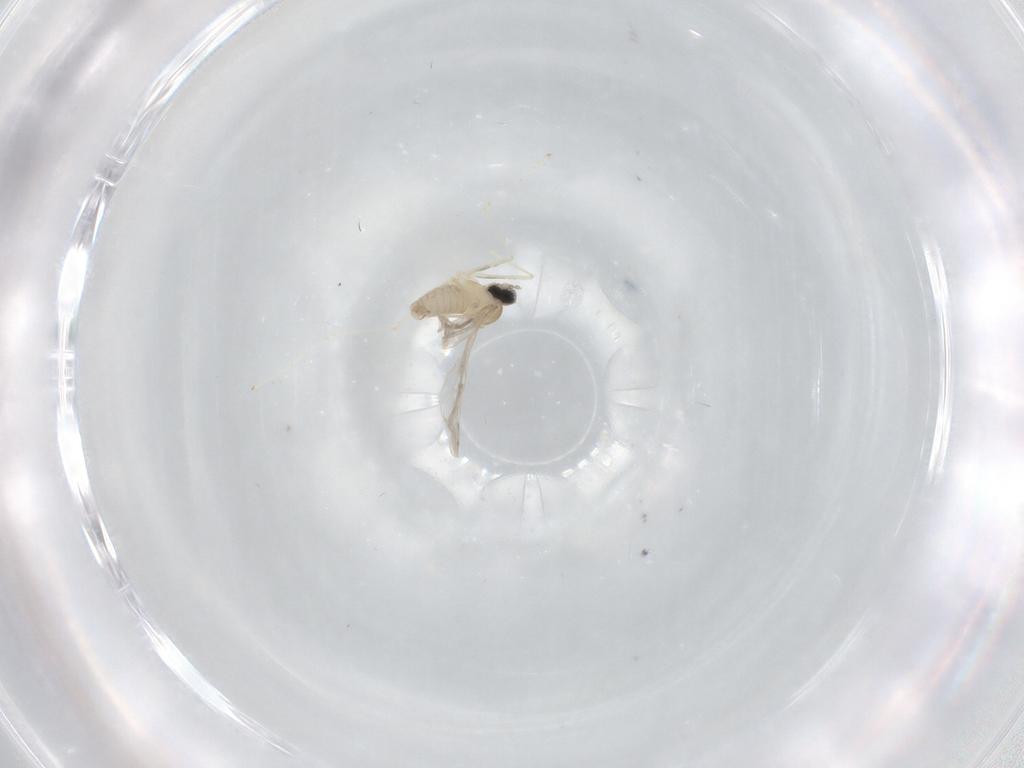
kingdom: Animalia
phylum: Arthropoda
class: Insecta
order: Diptera
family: Cecidomyiidae
